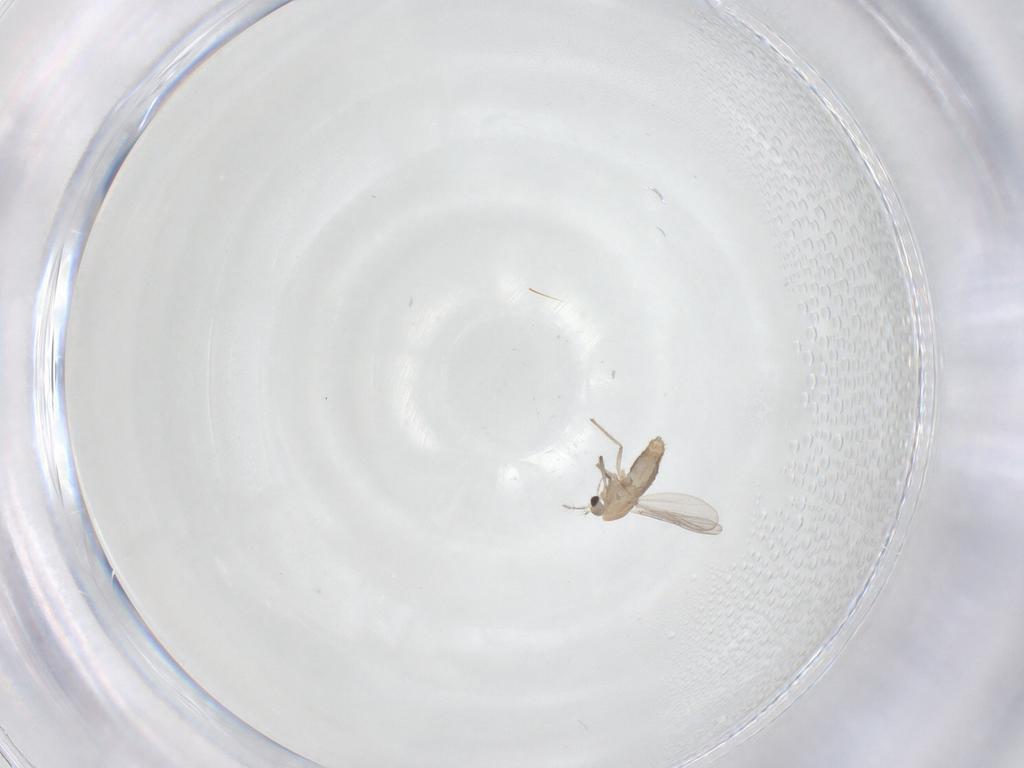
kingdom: Animalia
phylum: Arthropoda
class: Insecta
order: Diptera
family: Chironomidae
